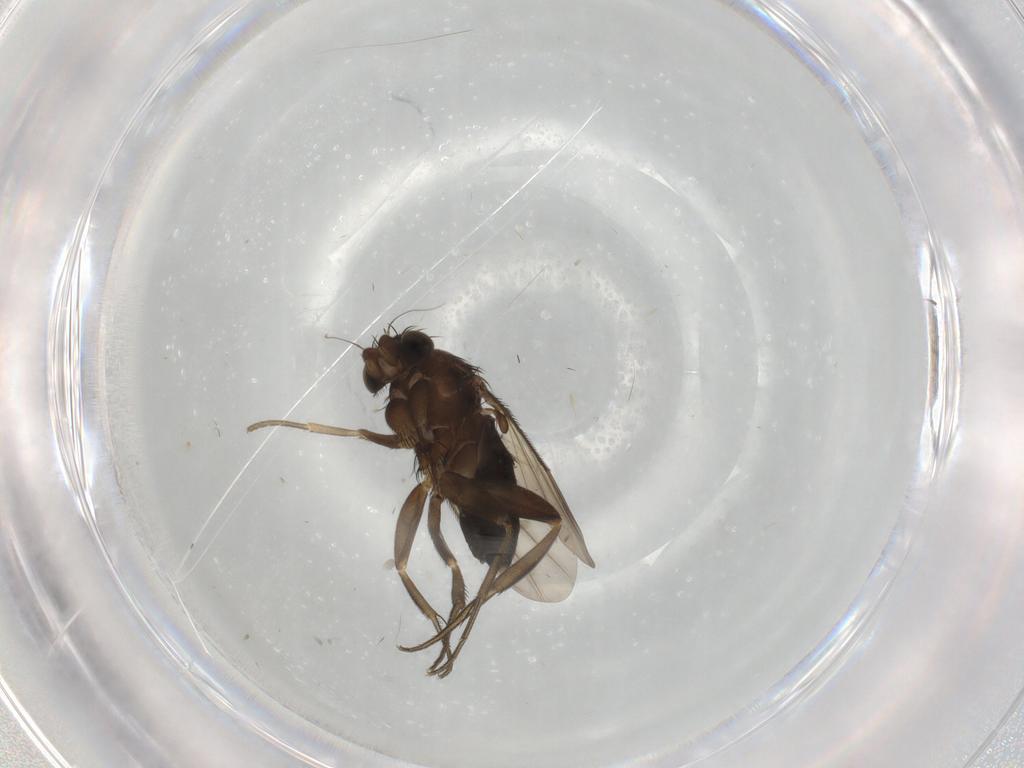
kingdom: Animalia
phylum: Arthropoda
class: Insecta
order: Diptera
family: Phoridae
